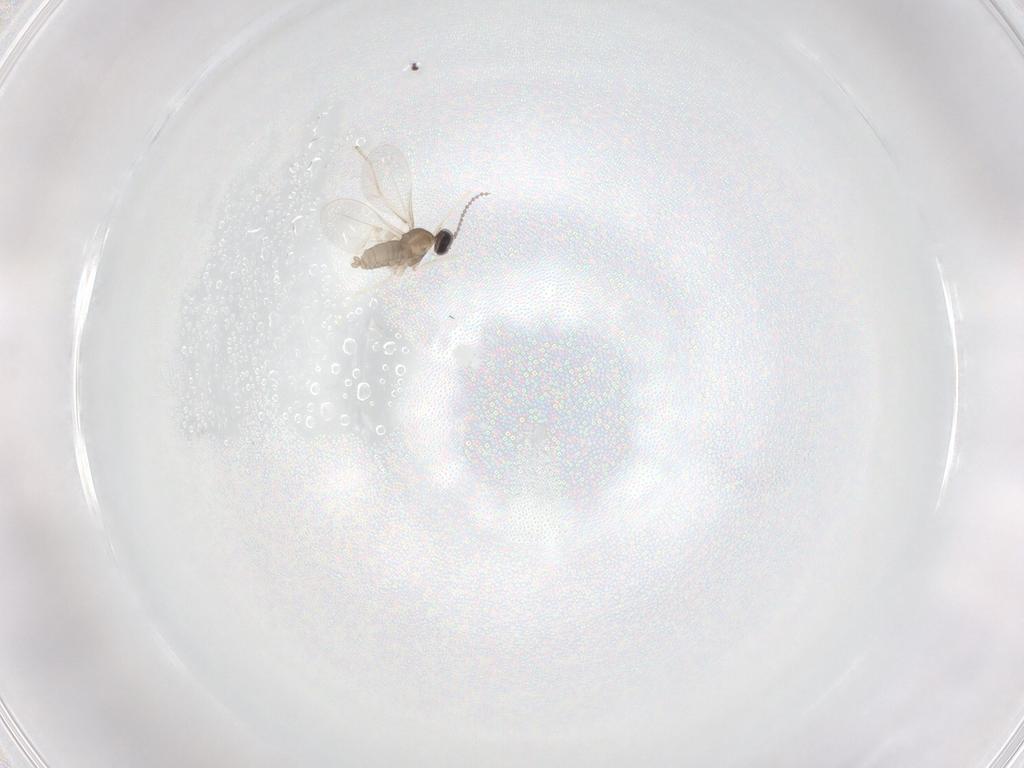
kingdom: Animalia
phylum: Arthropoda
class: Insecta
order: Diptera
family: Cecidomyiidae
